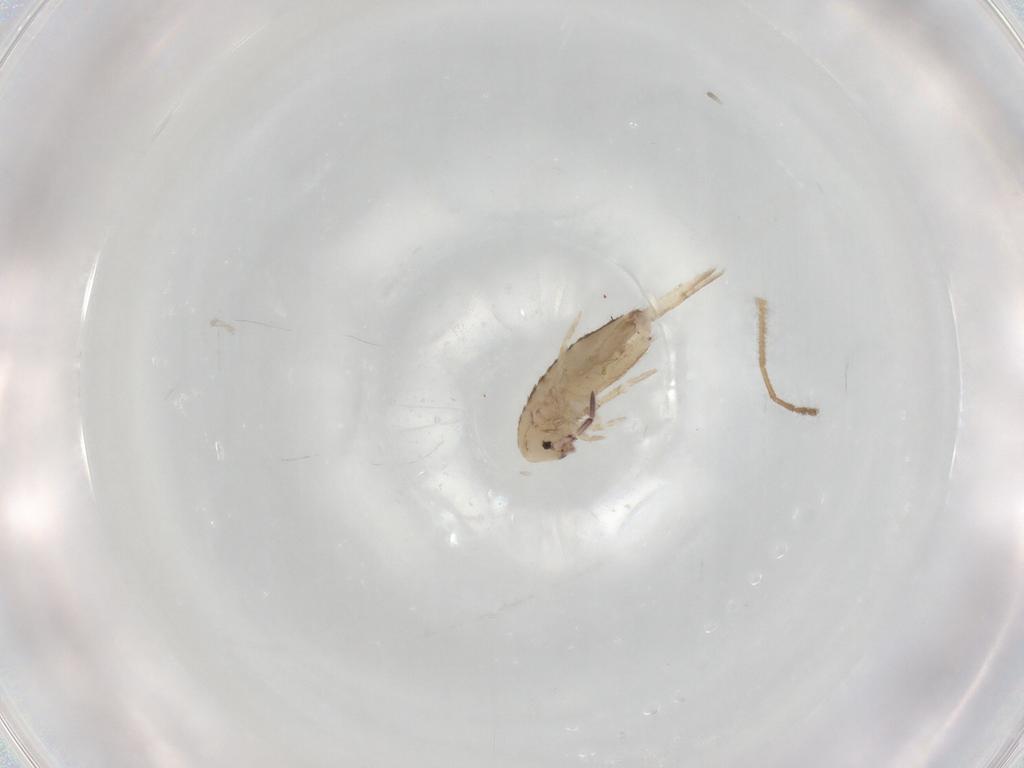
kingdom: Animalia
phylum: Arthropoda
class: Collembola
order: Entomobryomorpha
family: Entomobryidae
